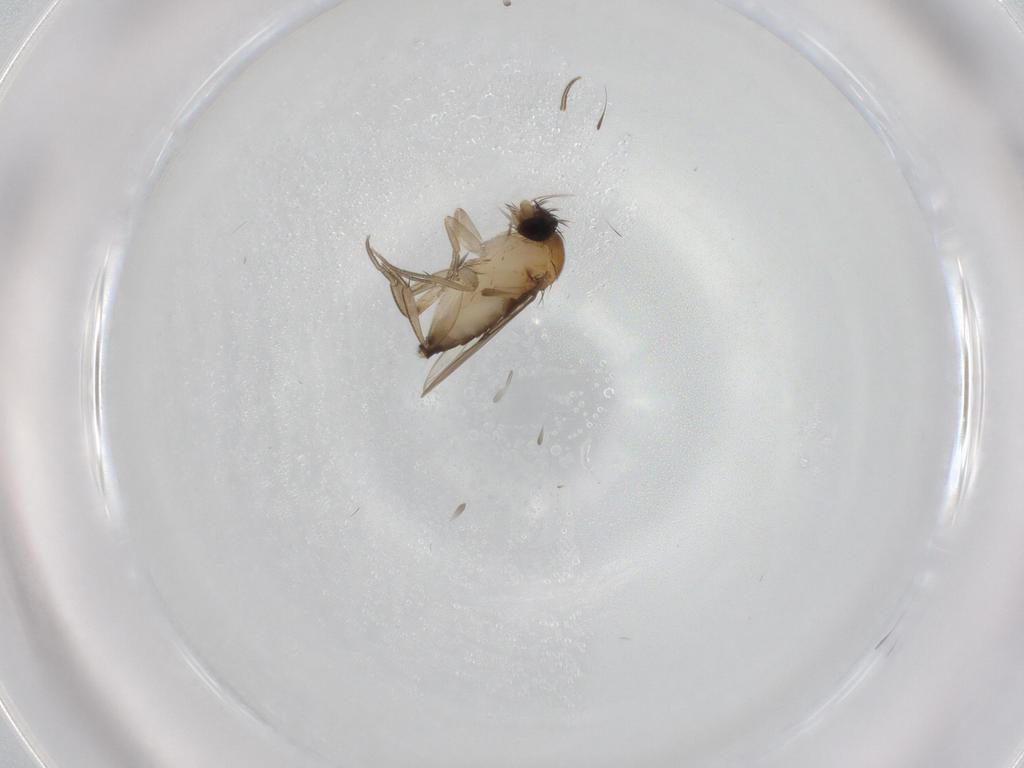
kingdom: Animalia
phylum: Arthropoda
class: Insecta
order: Diptera
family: Phoridae
